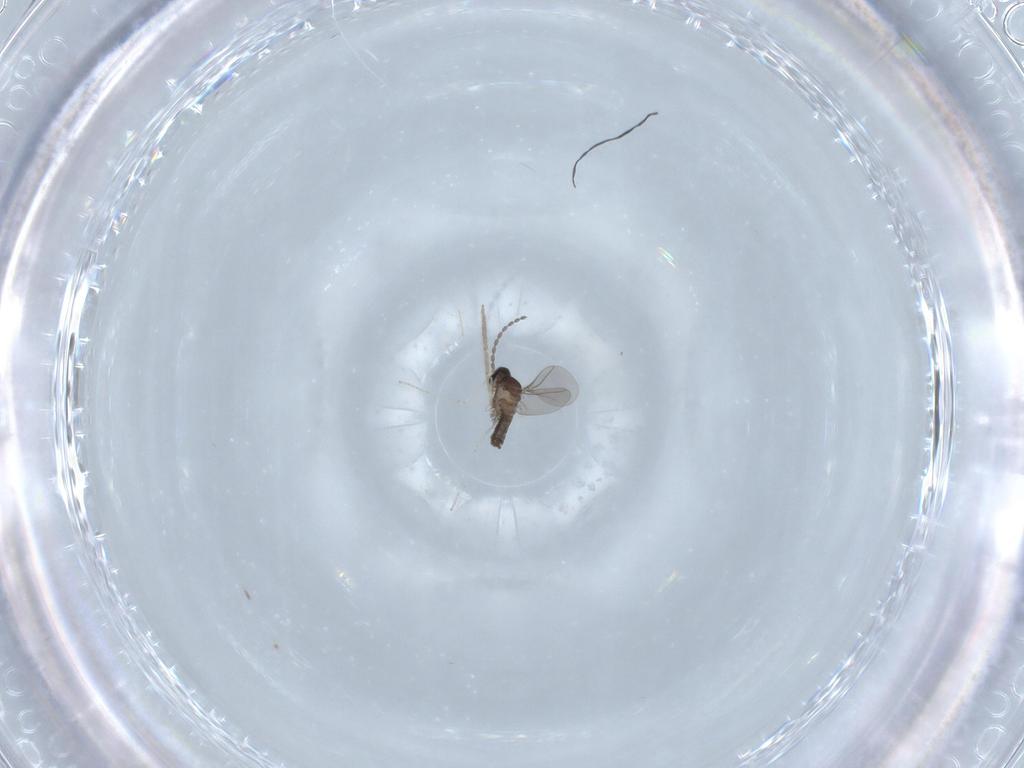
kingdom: Animalia
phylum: Arthropoda
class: Insecta
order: Diptera
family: Cecidomyiidae
